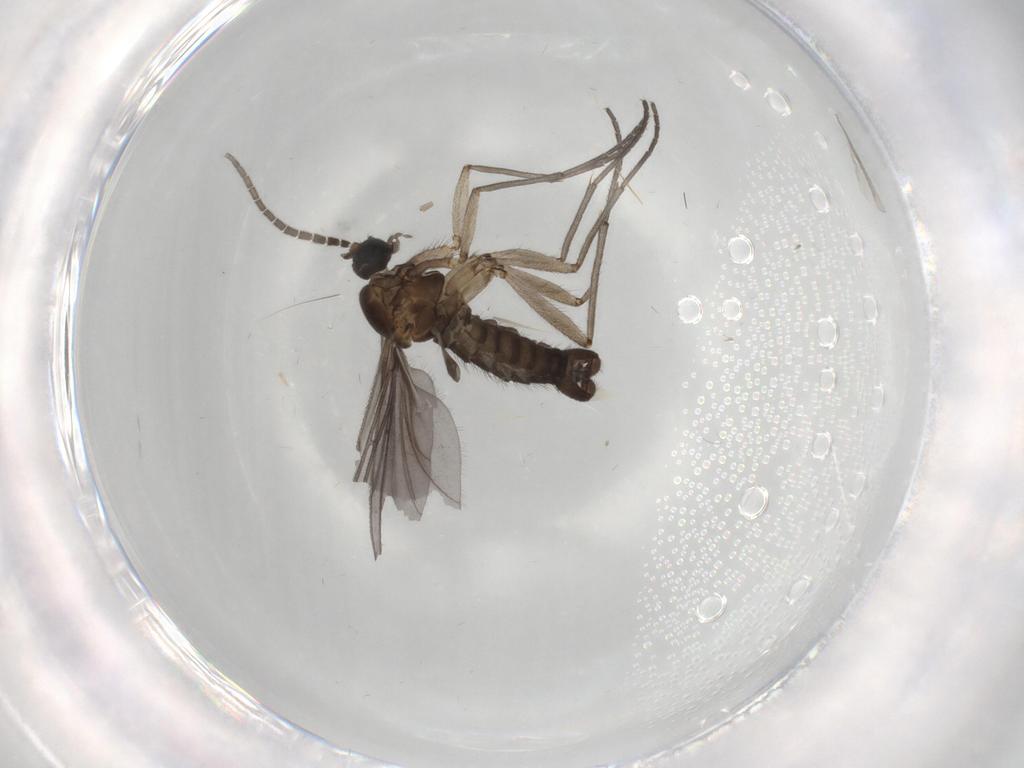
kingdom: Animalia
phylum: Arthropoda
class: Insecta
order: Diptera
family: Sciaridae
